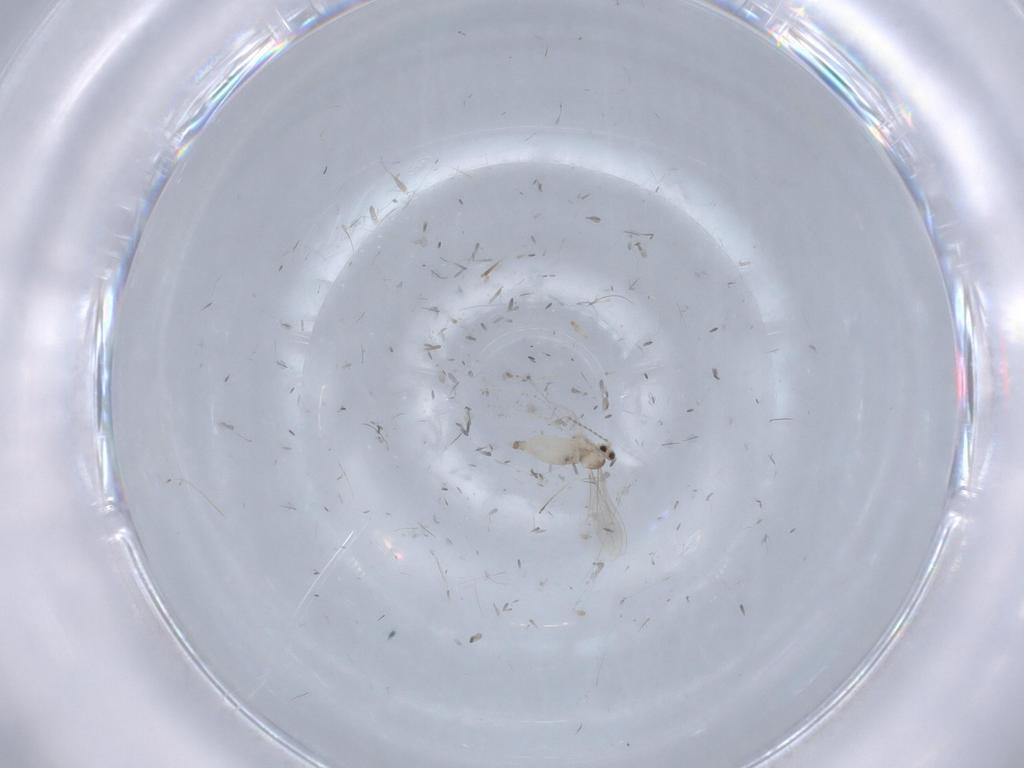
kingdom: Animalia
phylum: Arthropoda
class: Insecta
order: Diptera
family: Cecidomyiidae
